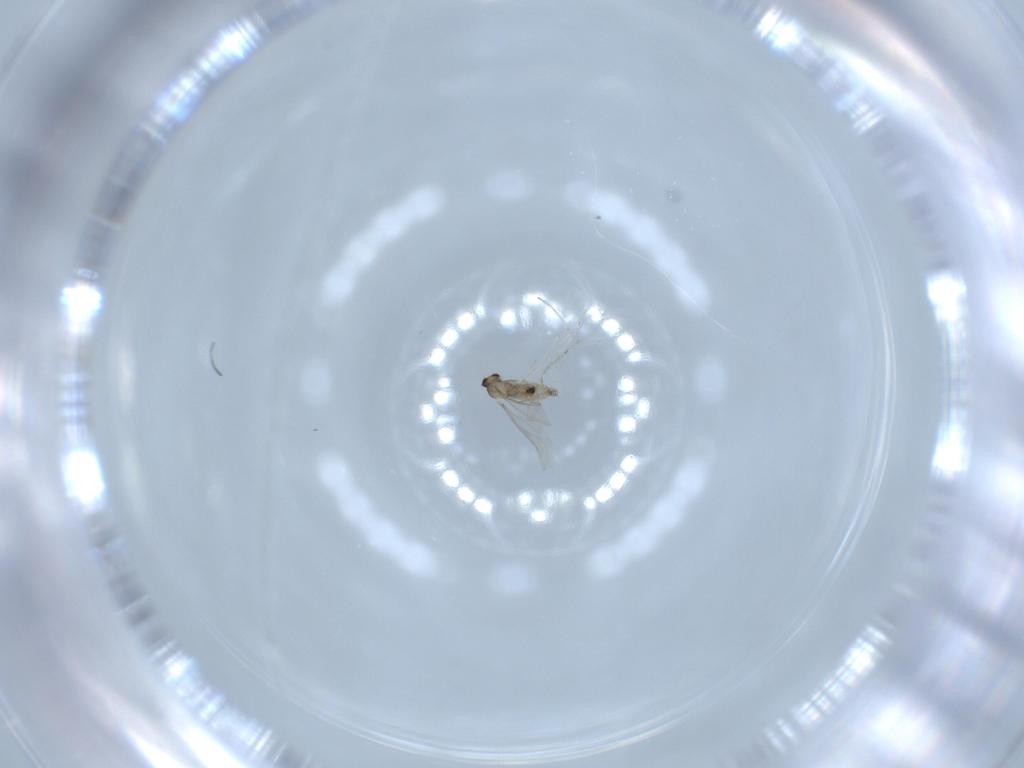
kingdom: Animalia
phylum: Arthropoda
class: Insecta
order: Diptera
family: Cecidomyiidae
